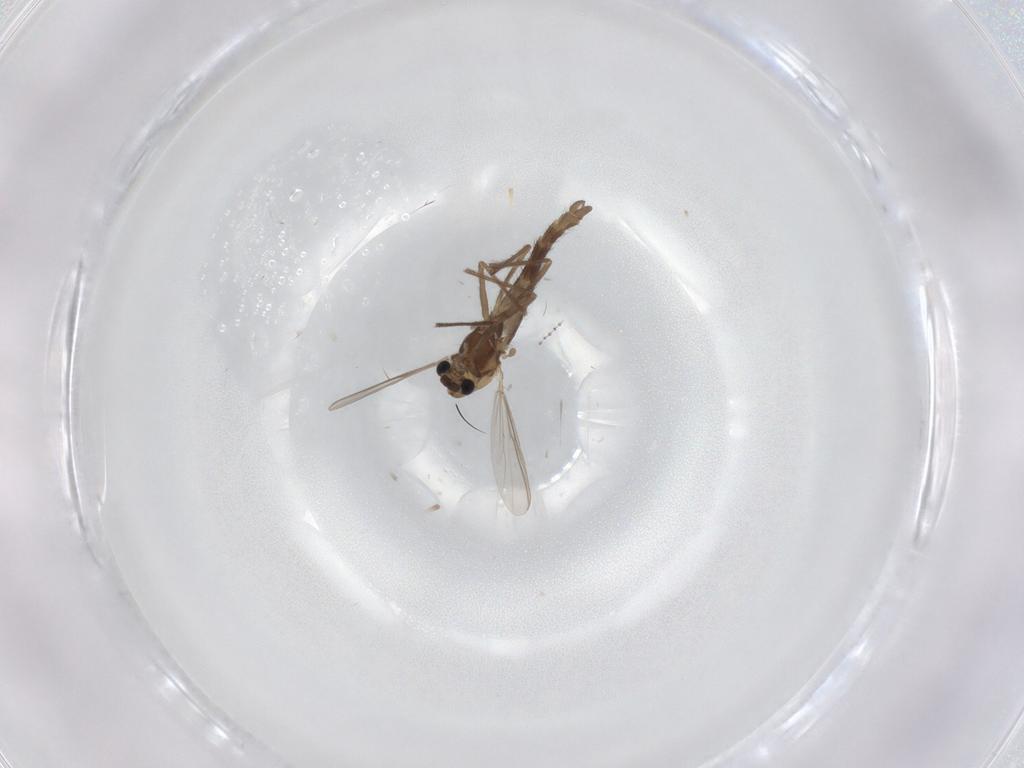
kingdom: Animalia
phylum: Arthropoda
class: Insecta
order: Diptera
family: Chironomidae
